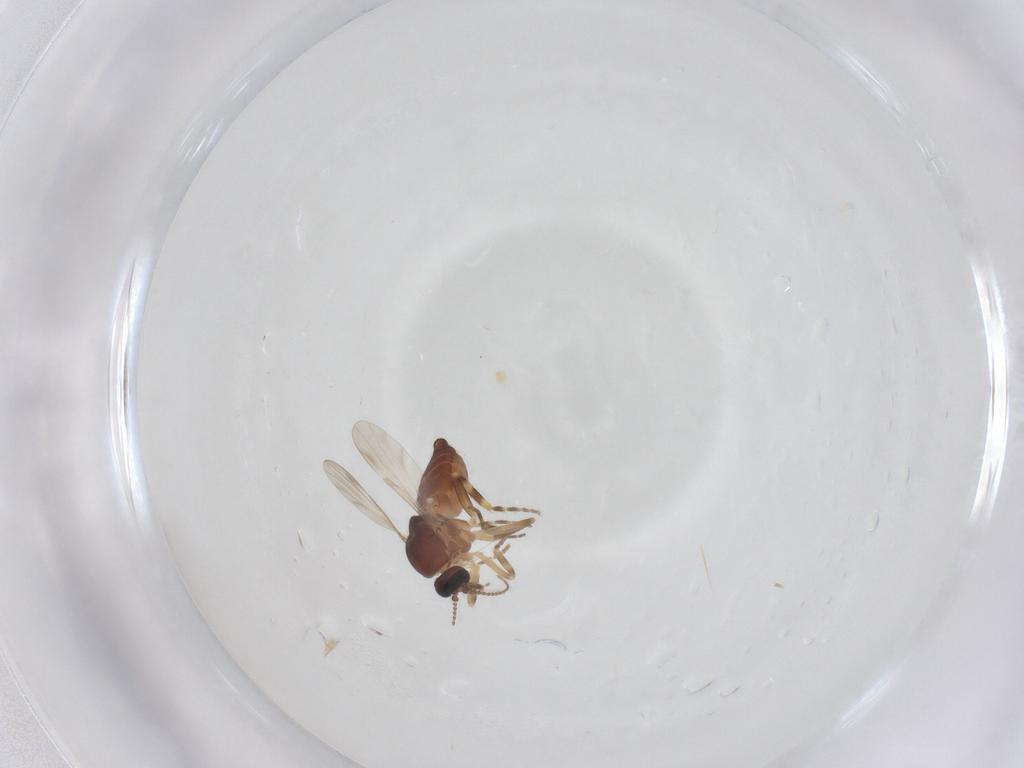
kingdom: Animalia
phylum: Arthropoda
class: Insecta
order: Diptera
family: Ceratopogonidae
